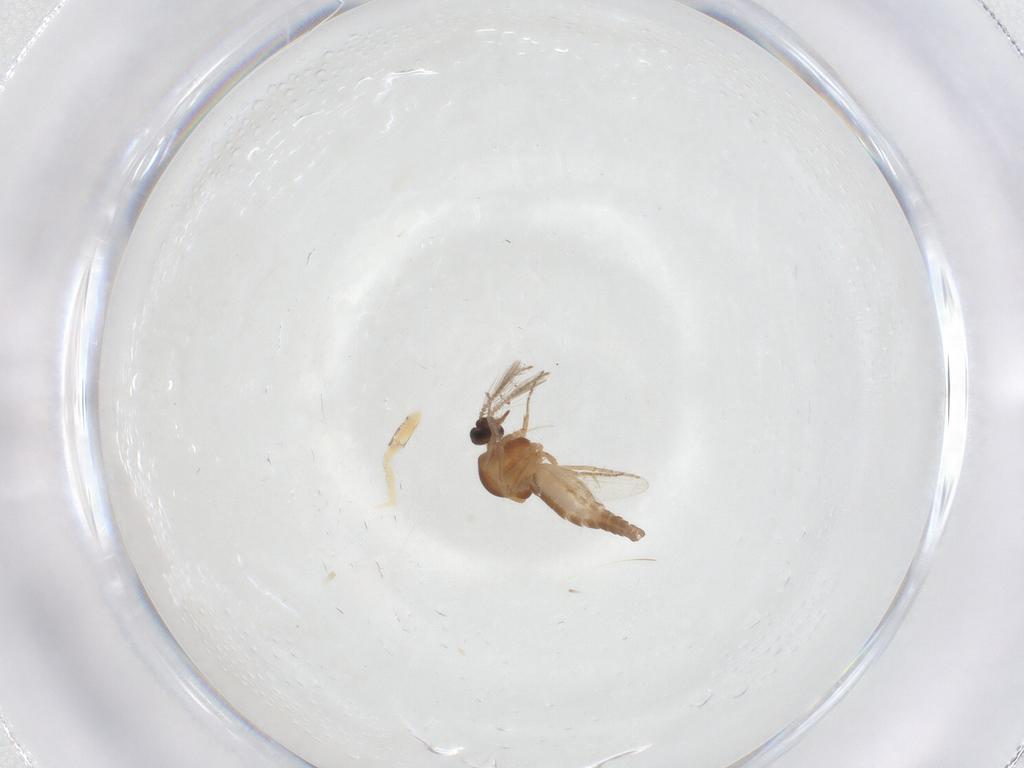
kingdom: Animalia
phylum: Arthropoda
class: Insecta
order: Diptera
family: Ceratopogonidae
